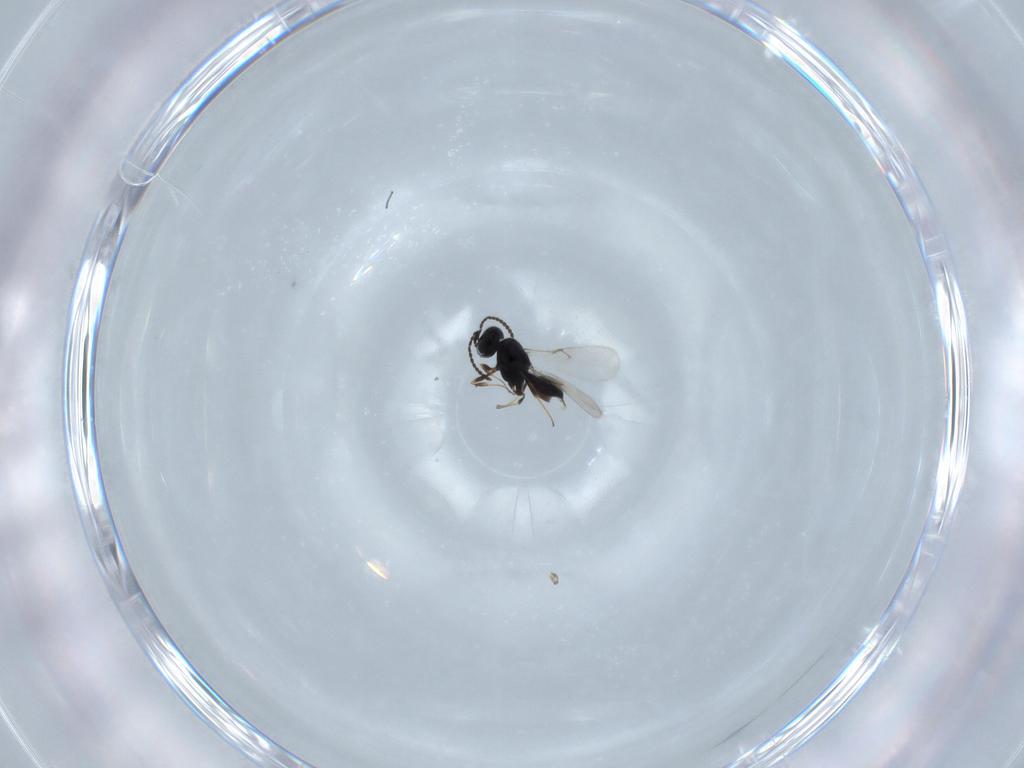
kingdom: Animalia
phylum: Arthropoda
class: Insecta
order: Hymenoptera
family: Scelionidae
